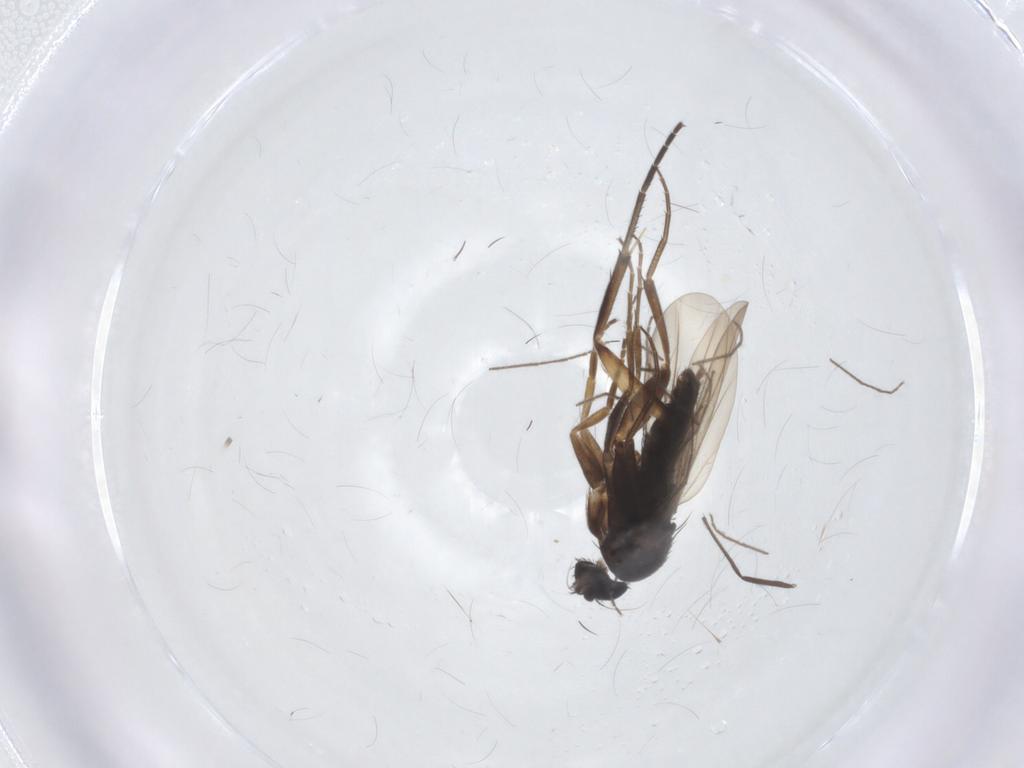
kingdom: Animalia
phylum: Arthropoda
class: Insecta
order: Diptera
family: Phoridae
